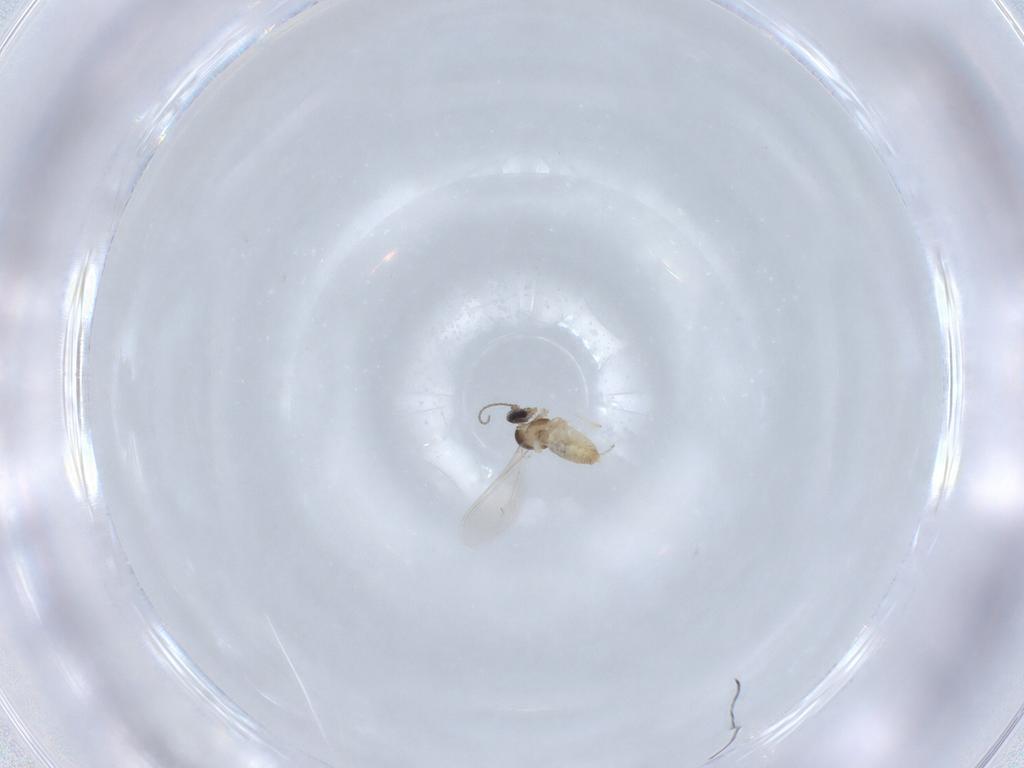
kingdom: Animalia
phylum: Arthropoda
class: Insecta
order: Diptera
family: Cecidomyiidae
